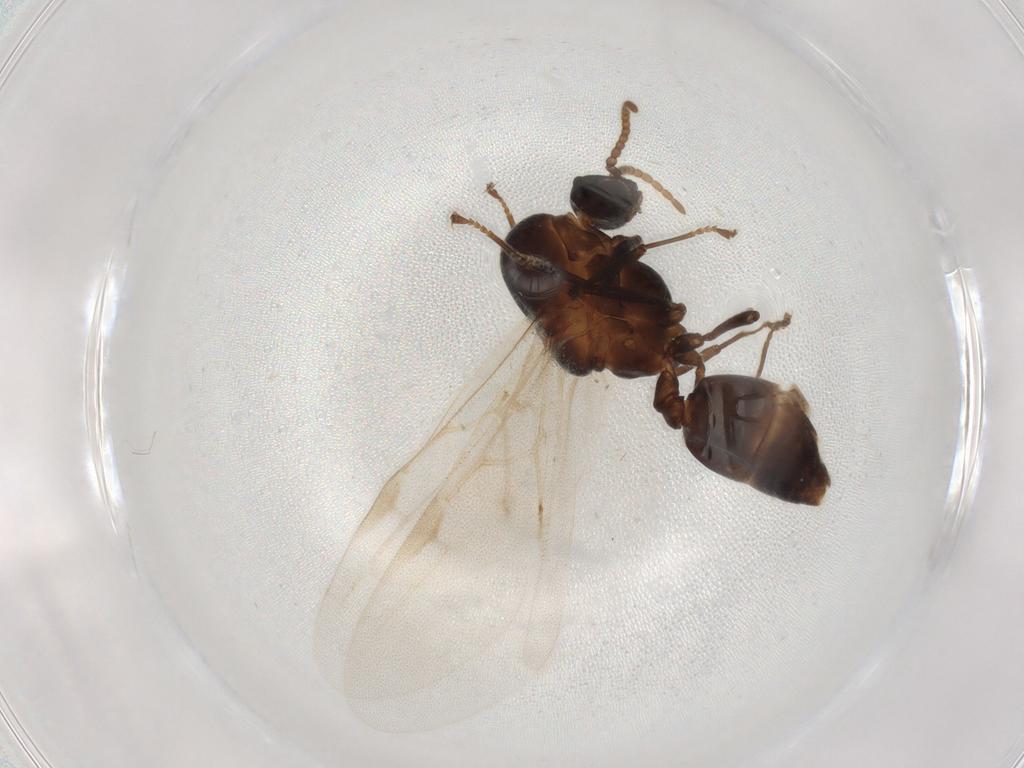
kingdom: Animalia
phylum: Arthropoda
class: Insecta
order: Hymenoptera
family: Formicidae
